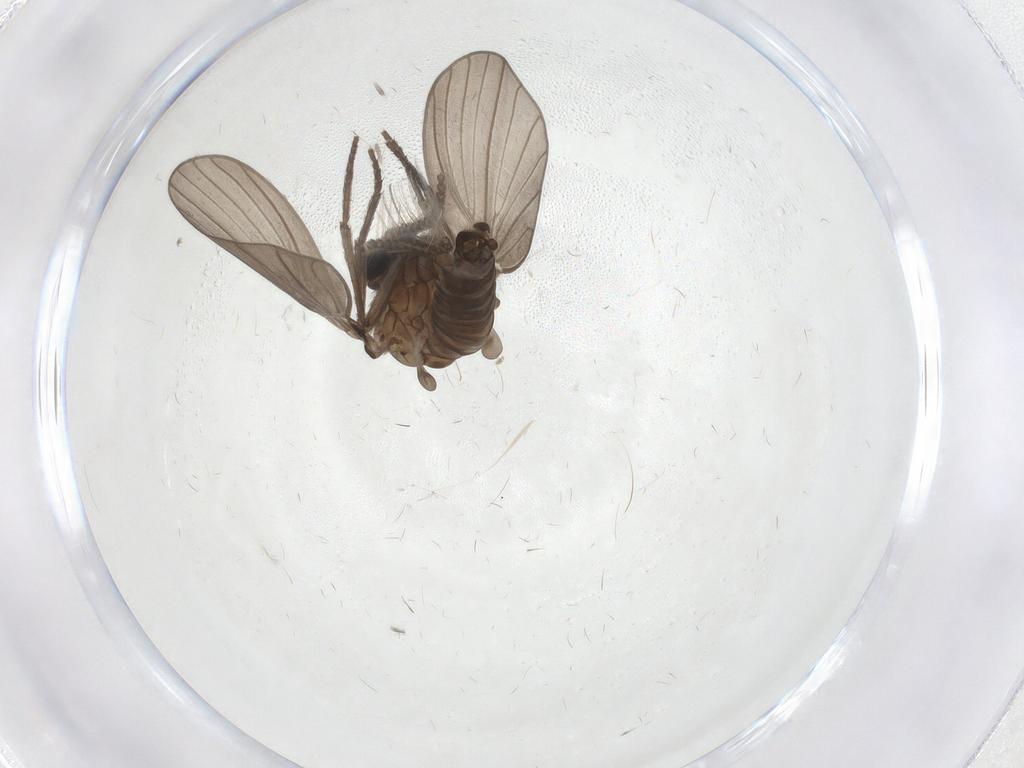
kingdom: Animalia
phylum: Arthropoda
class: Insecta
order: Diptera
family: Psychodidae
